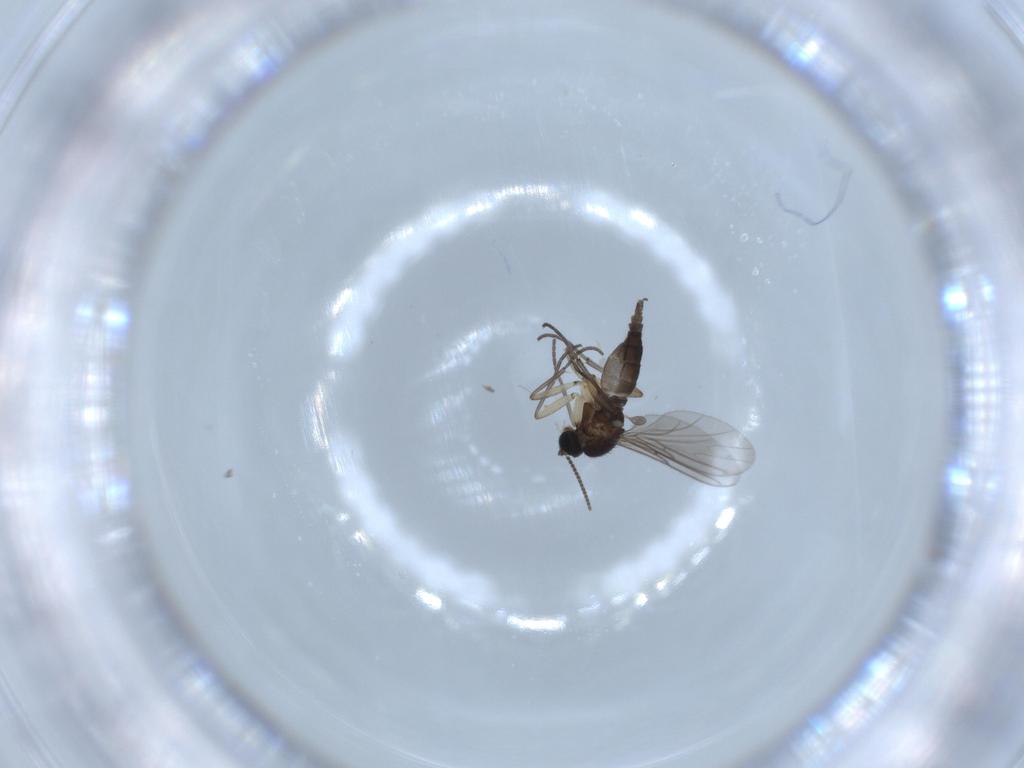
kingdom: Animalia
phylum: Arthropoda
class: Insecta
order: Diptera
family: Sciaridae
